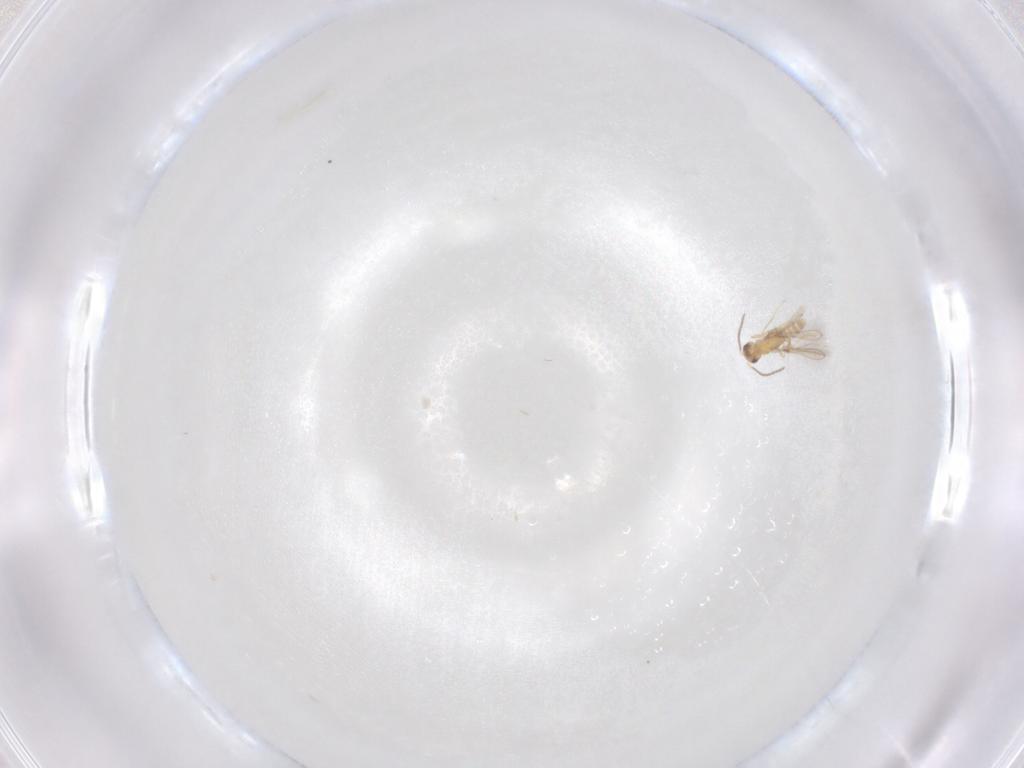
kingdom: Animalia
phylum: Arthropoda
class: Insecta
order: Hymenoptera
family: Mymaridae
